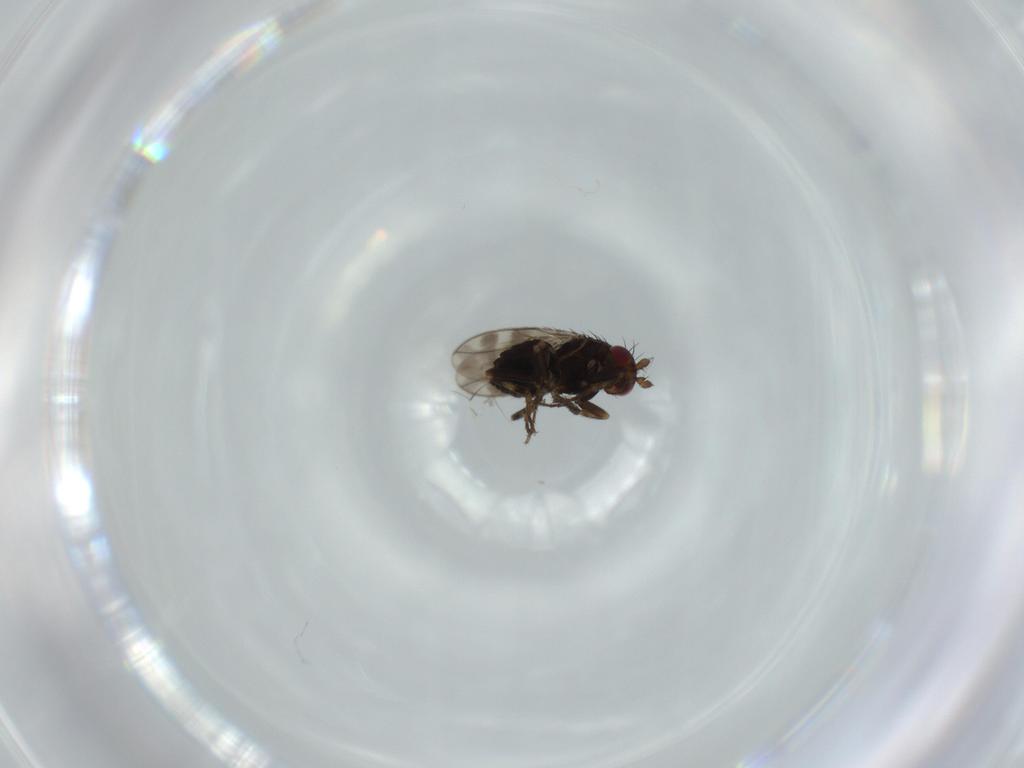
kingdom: Animalia
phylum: Arthropoda
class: Insecta
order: Diptera
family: Sphaeroceridae
